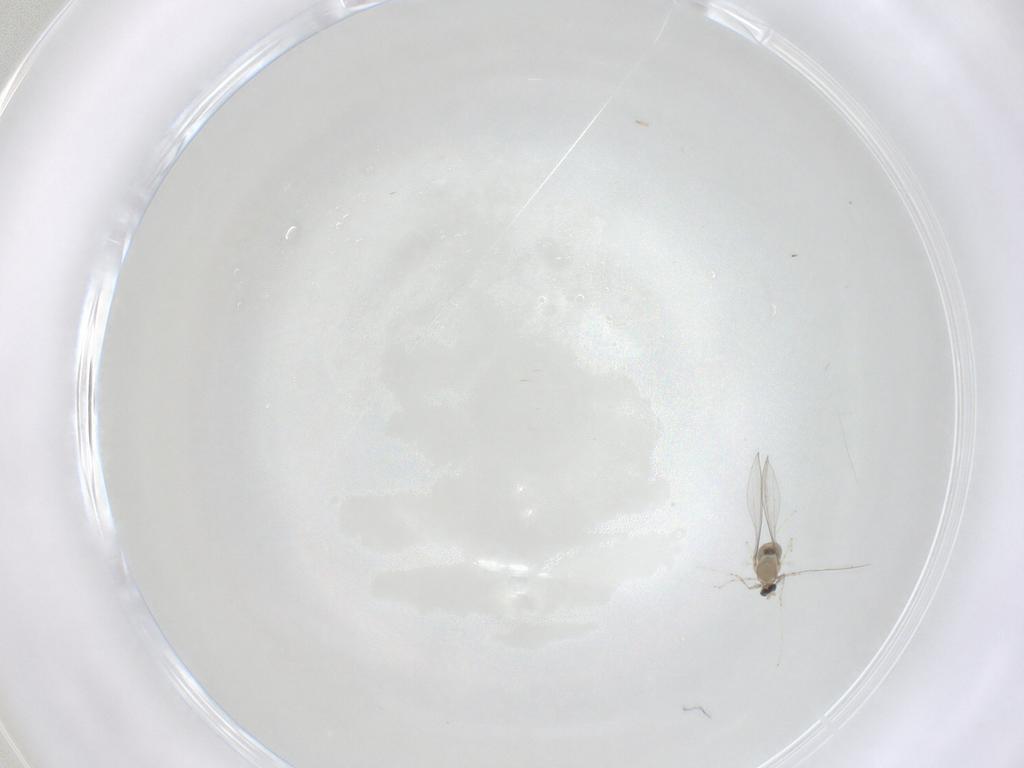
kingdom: Animalia
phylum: Arthropoda
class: Insecta
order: Diptera
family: Cecidomyiidae
